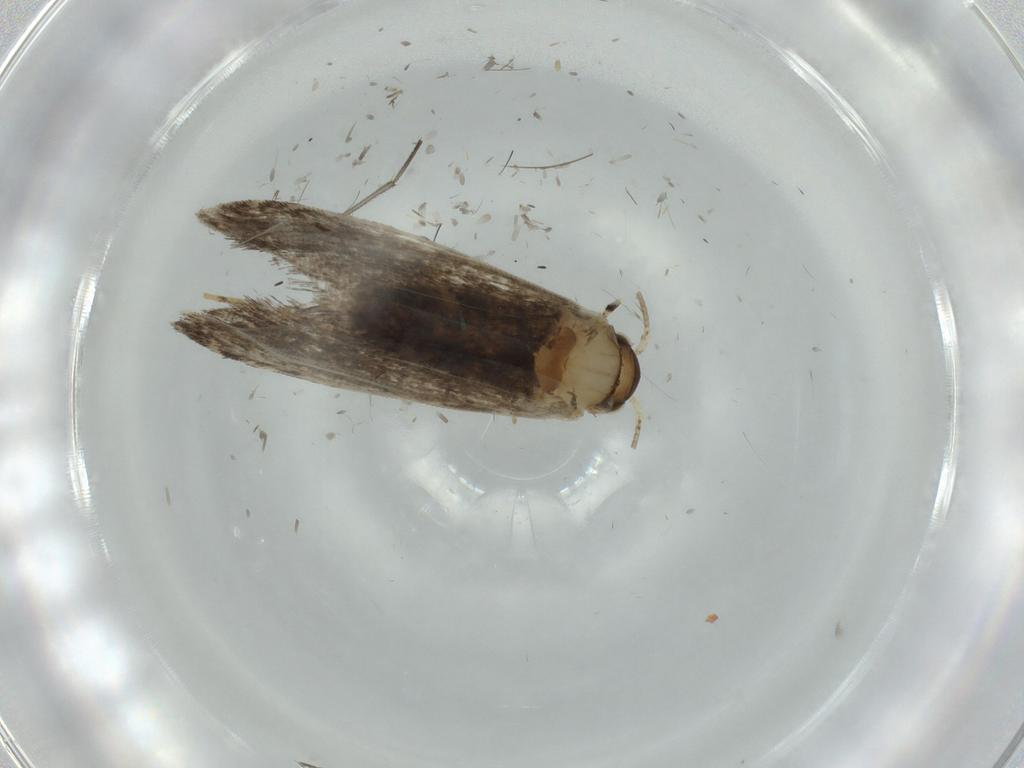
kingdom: Animalia
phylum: Arthropoda
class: Insecta
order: Lepidoptera
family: Tineidae
